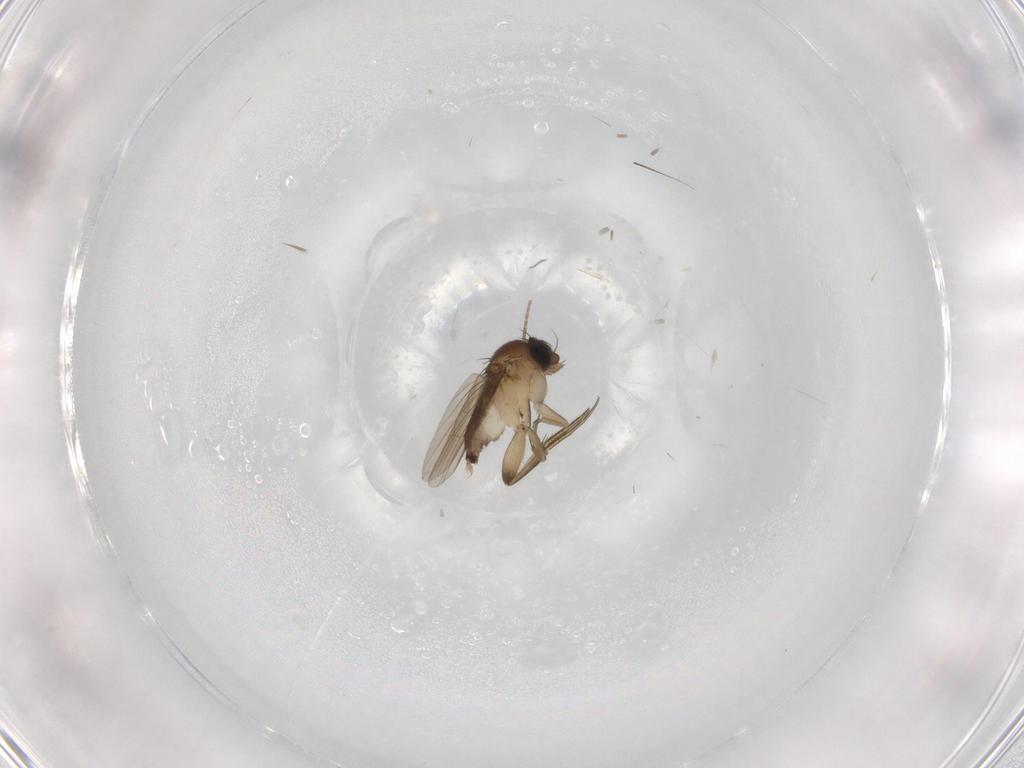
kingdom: Animalia
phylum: Arthropoda
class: Insecta
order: Diptera
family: Phoridae
